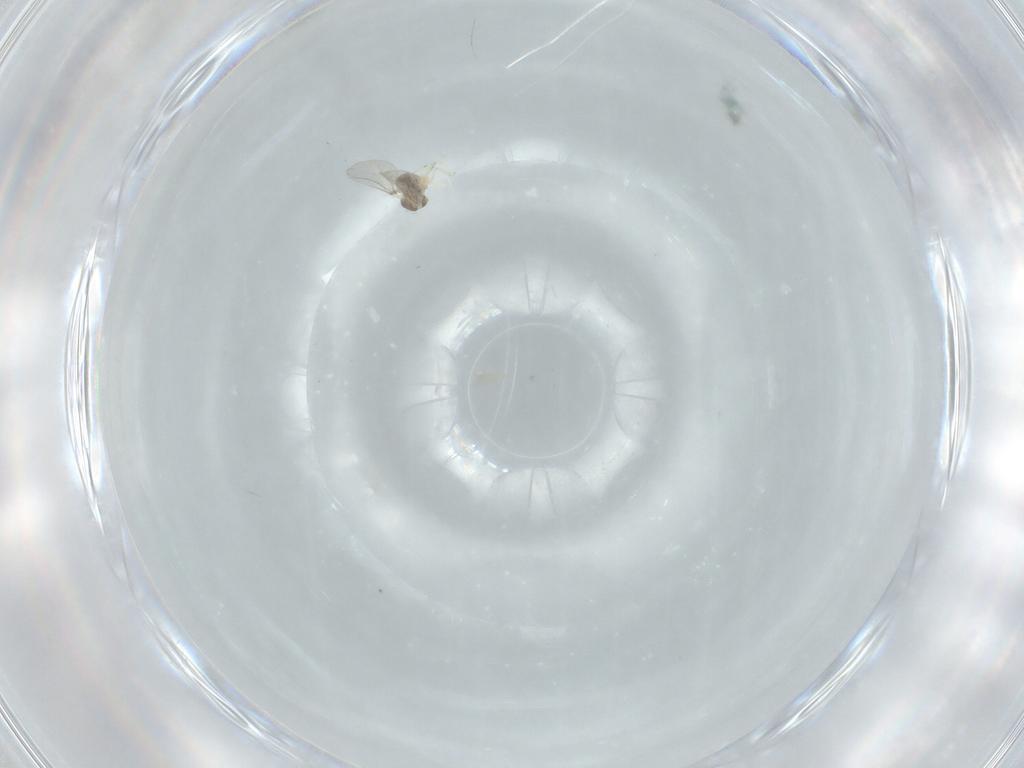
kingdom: Animalia
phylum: Arthropoda
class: Insecta
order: Diptera
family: Cecidomyiidae
